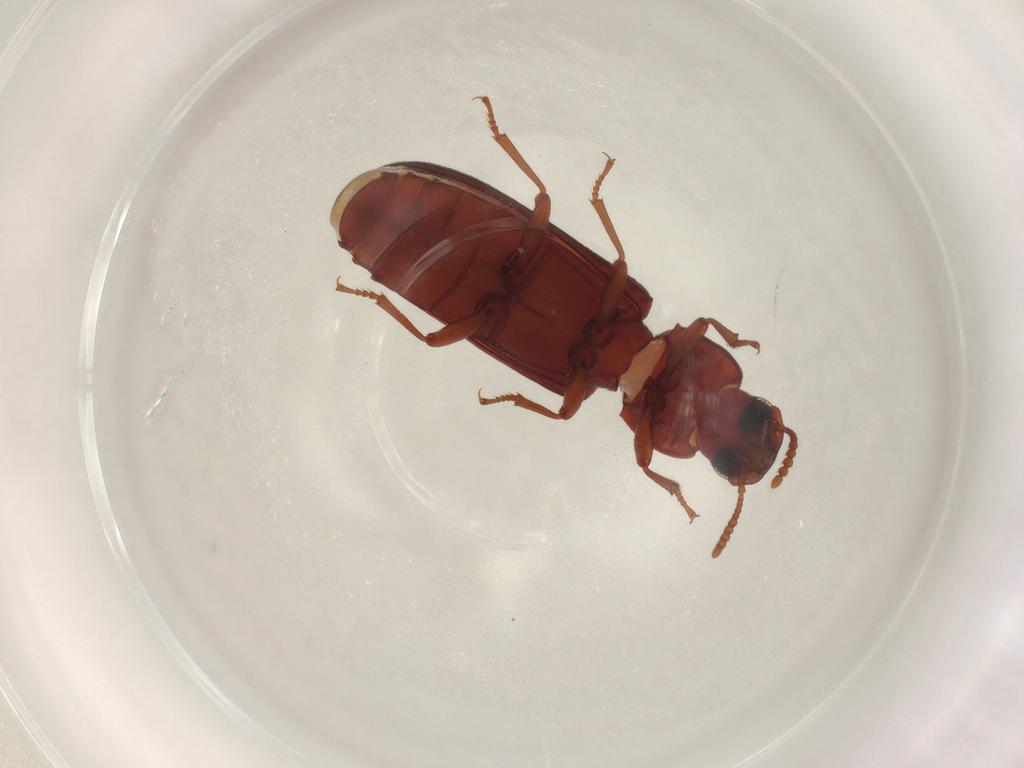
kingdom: Animalia
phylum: Arthropoda
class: Insecta
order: Coleoptera
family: Tenebrionidae
